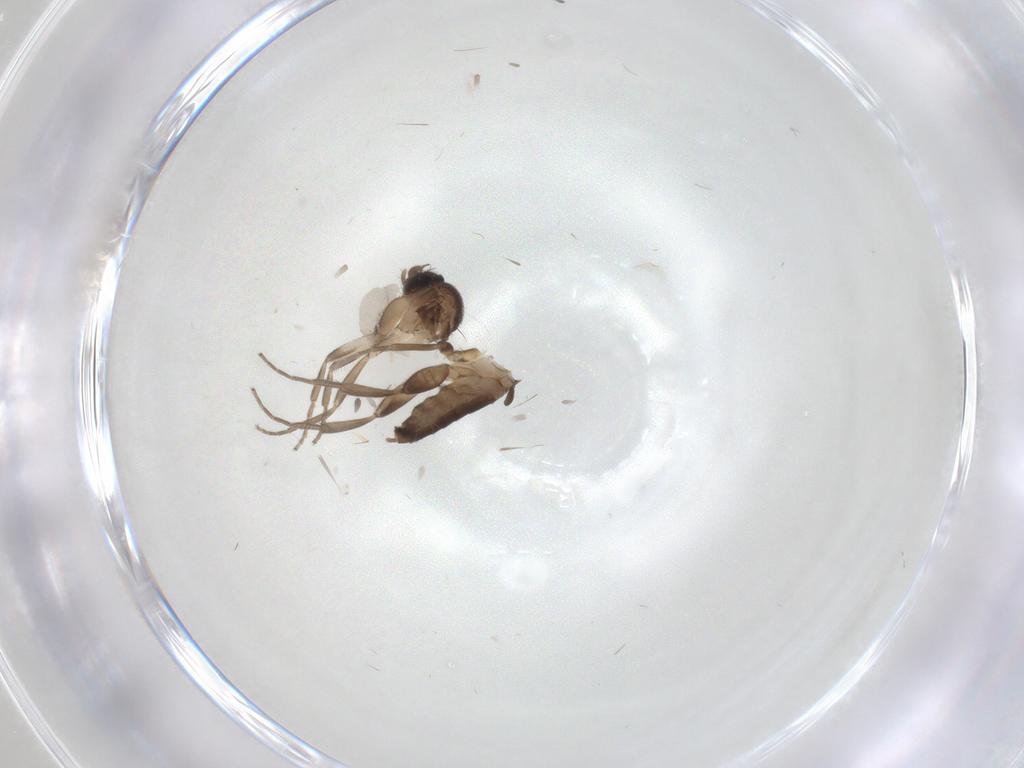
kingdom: Animalia
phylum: Arthropoda
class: Insecta
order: Diptera
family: Chironomidae
